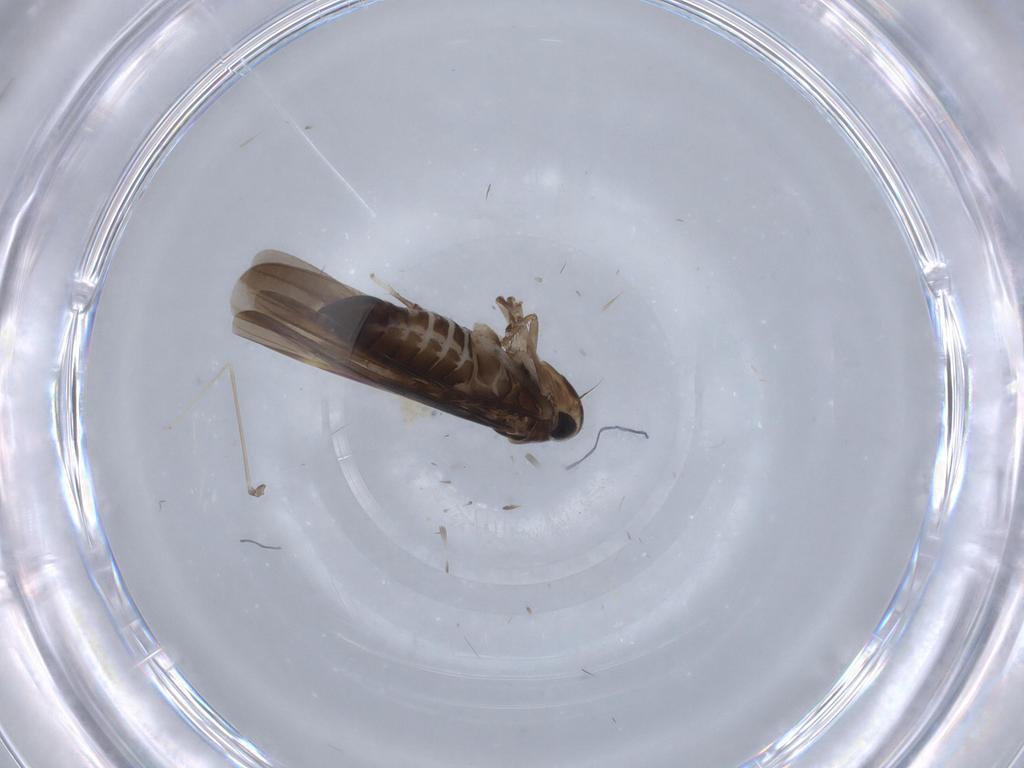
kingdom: Animalia
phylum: Arthropoda
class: Insecta
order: Hemiptera
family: Cicadellidae
